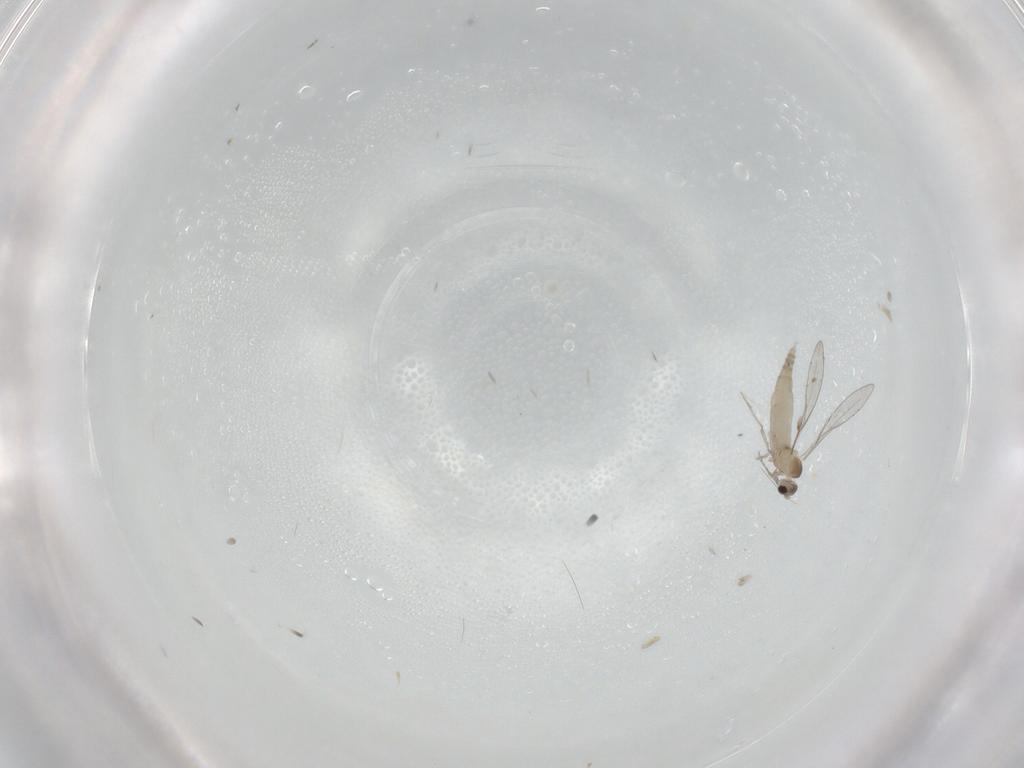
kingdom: Animalia
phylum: Arthropoda
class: Insecta
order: Diptera
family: Cecidomyiidae
